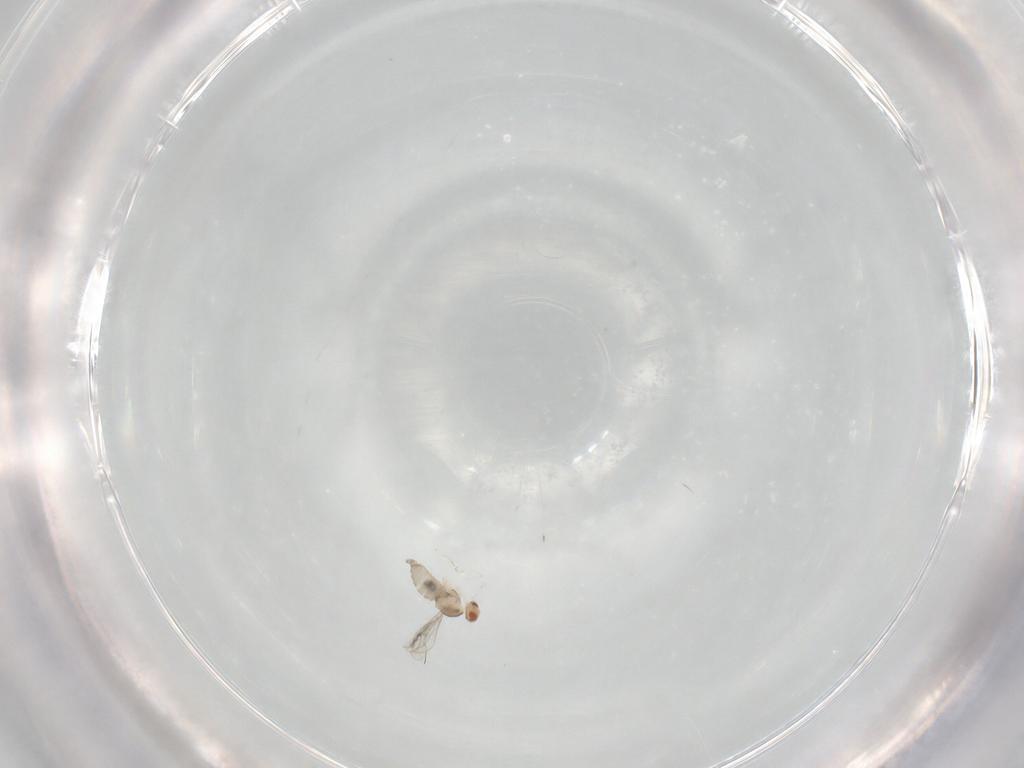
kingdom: Animalia
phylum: Arthropoda
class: Insecta
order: Diptera
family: Cecidomyiidae
